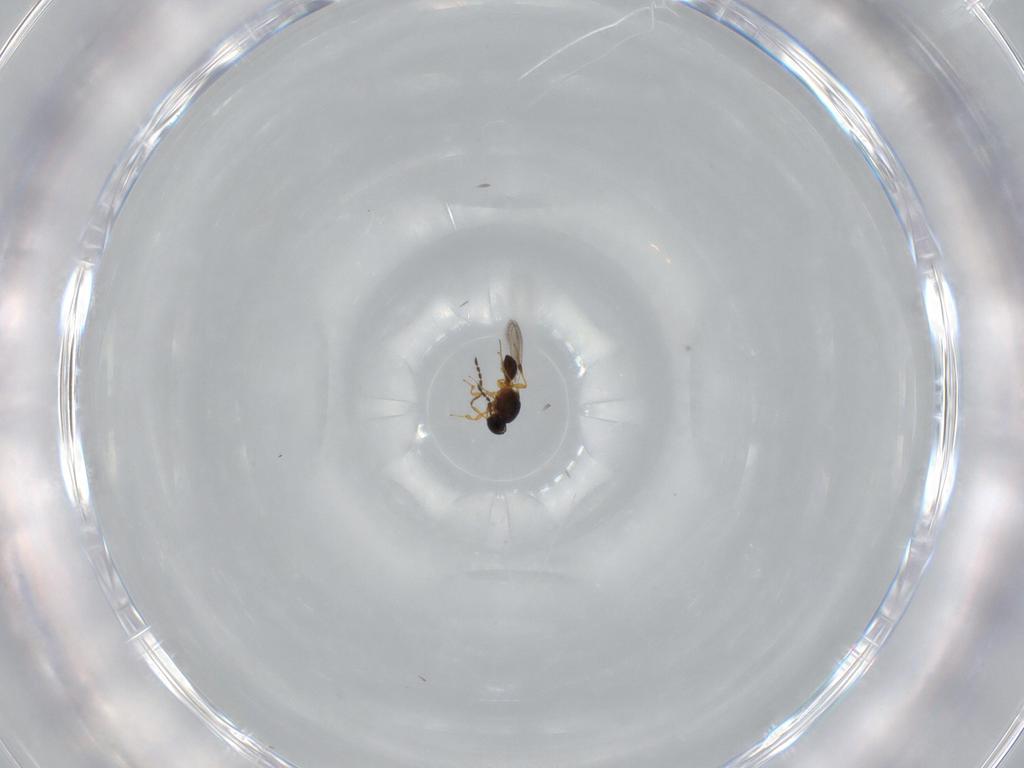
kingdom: Animalia
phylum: Arthropoda
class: Insecta
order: Hymenoptera
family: Platygastridae
